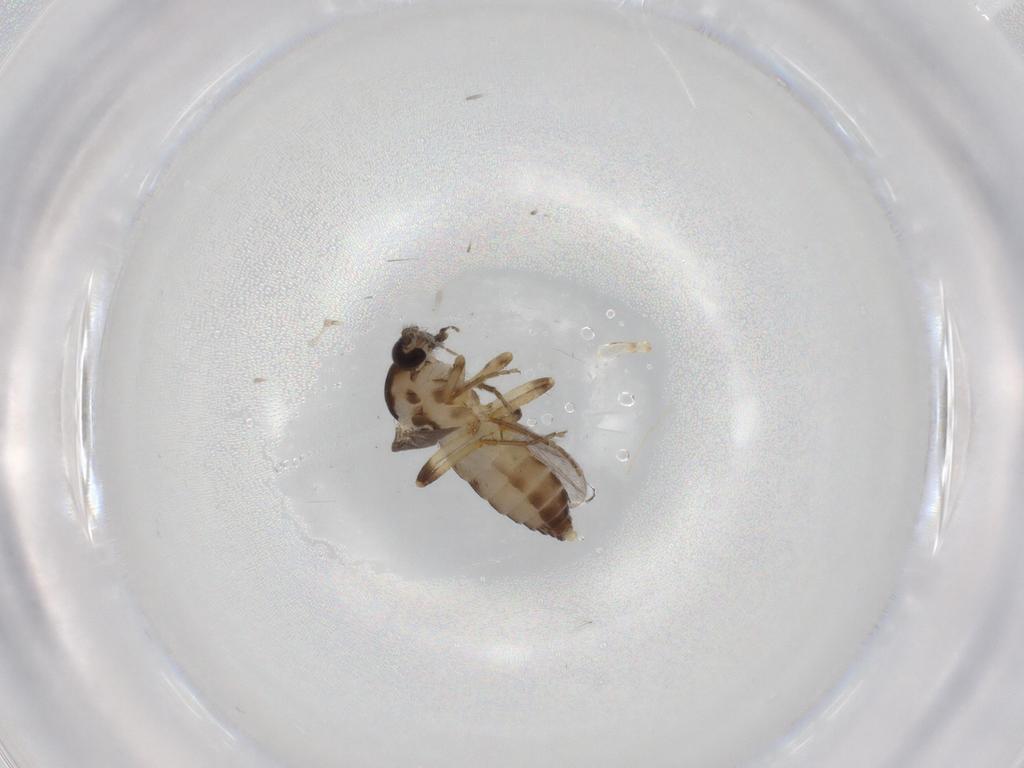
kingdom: Animalia
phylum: Arthropoda
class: Insecta
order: Diptera
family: Ceratopogonidae
